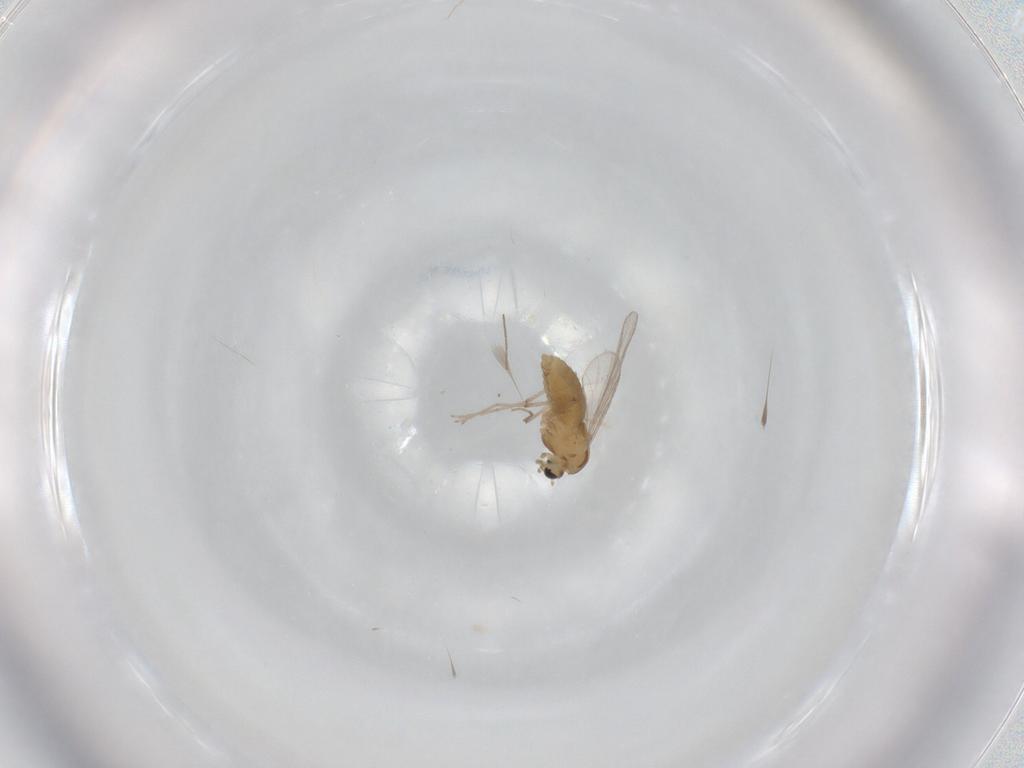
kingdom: Animalia
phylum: Arthropoda
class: Insecta
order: Diptera
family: Chironomidae
